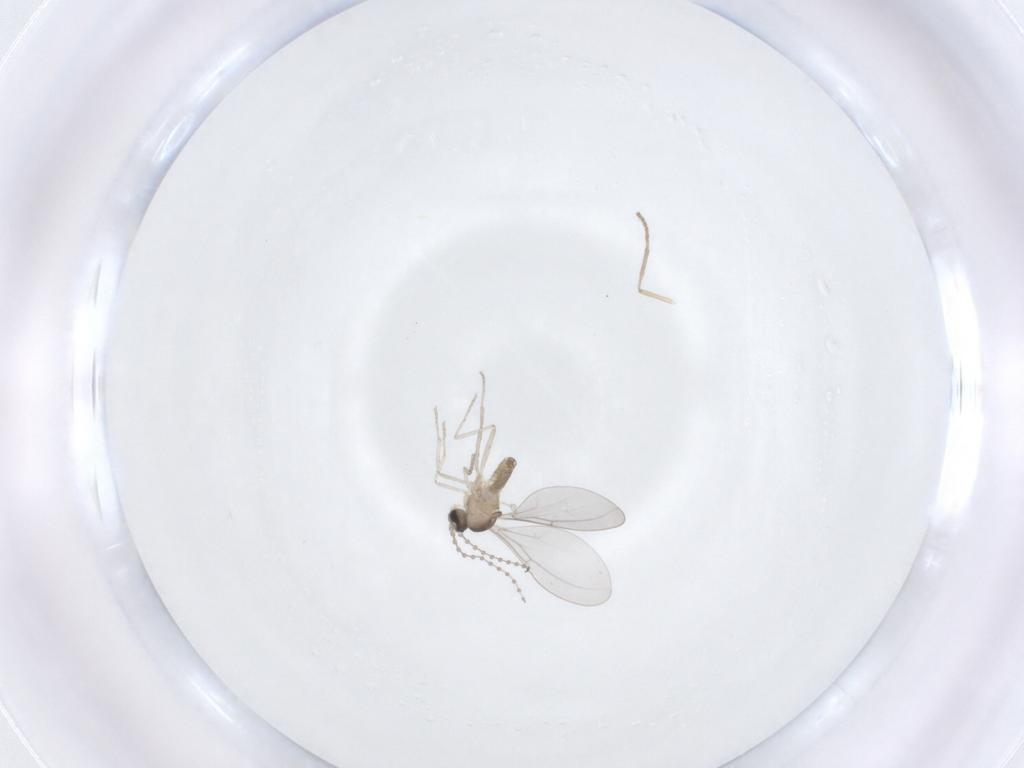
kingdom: Animalia
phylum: Arthropoda
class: Insecta
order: Diptera
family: Cecidomyiidae
